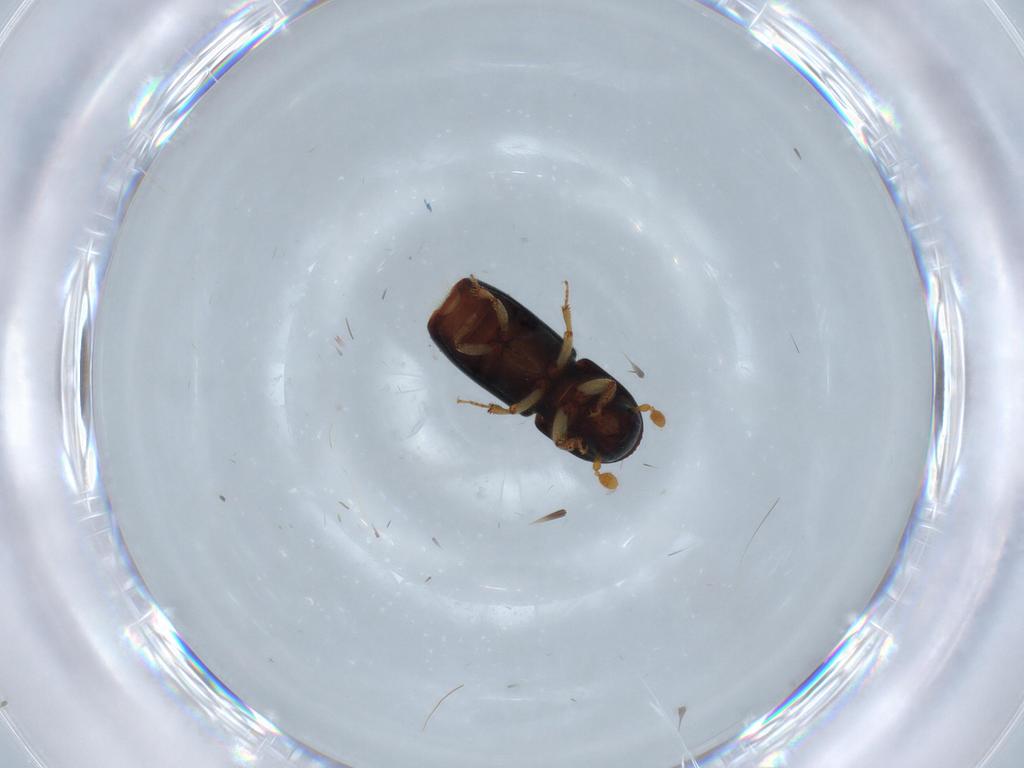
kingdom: Animalia
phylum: Arthropoda
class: Insecta
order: Coleoptera
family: Curculionidae
